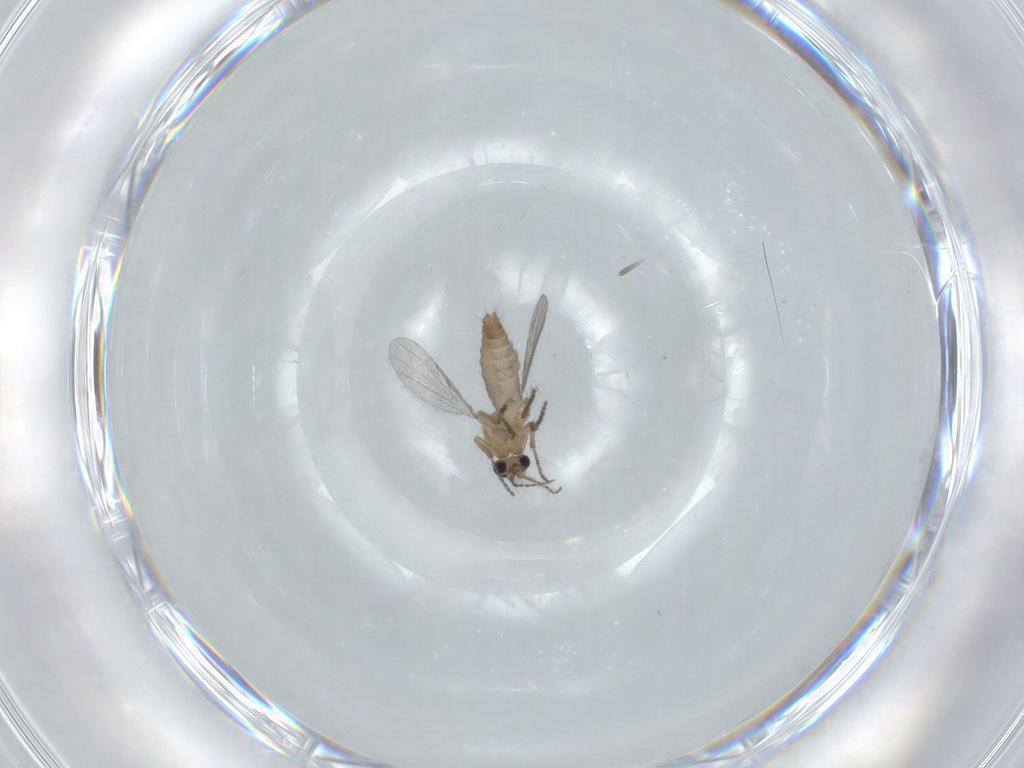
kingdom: Animalia
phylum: Arthropoda
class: Insecta
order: Diptera
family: Ceratopogonidae
